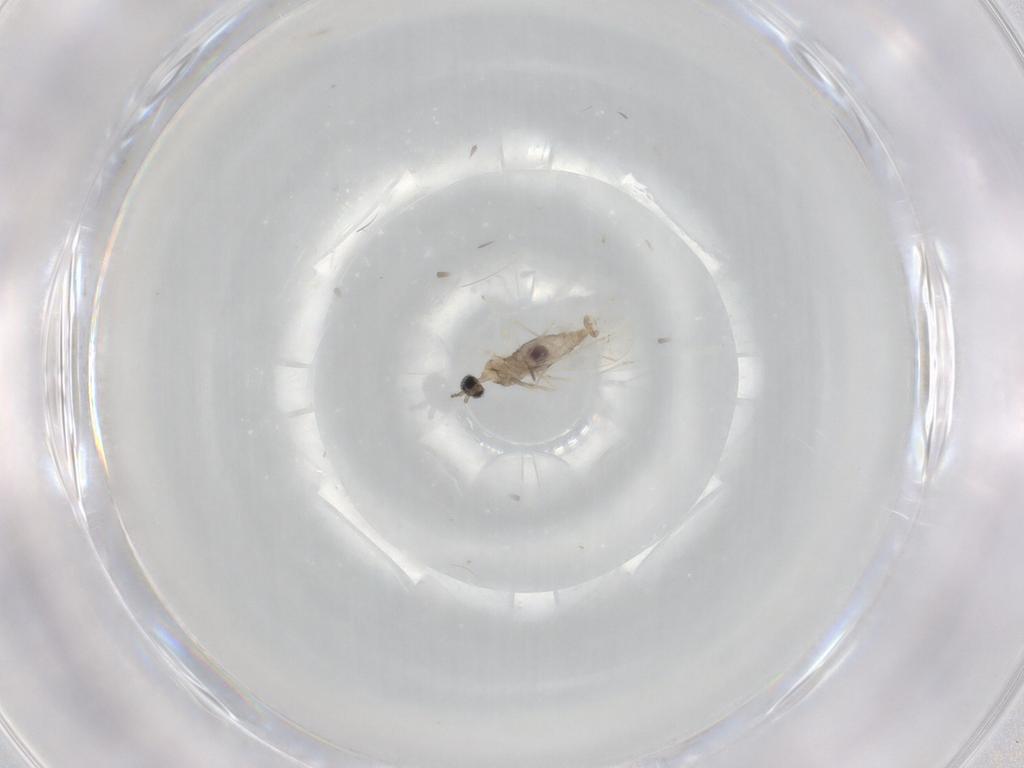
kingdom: Animalia
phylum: Arthropoda
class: Insecta
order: Diptera
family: Cecidomyiidae
